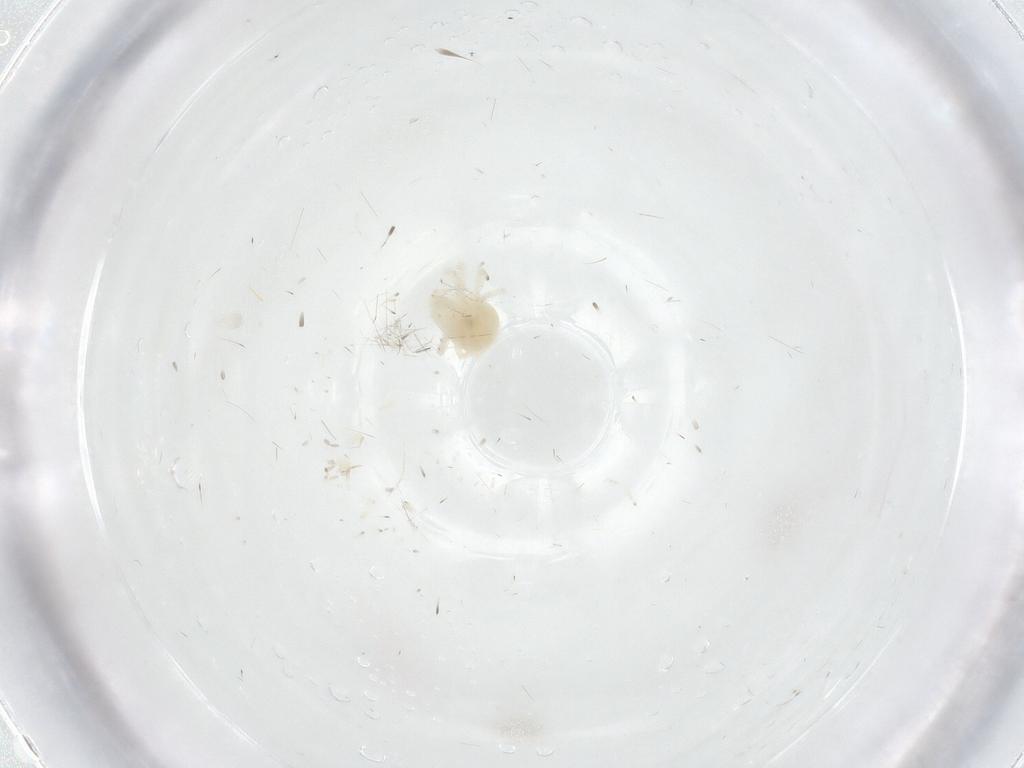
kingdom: Animalia
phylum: Arthropoda
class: Arachnida
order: Trombidiformes
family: Anystidae
